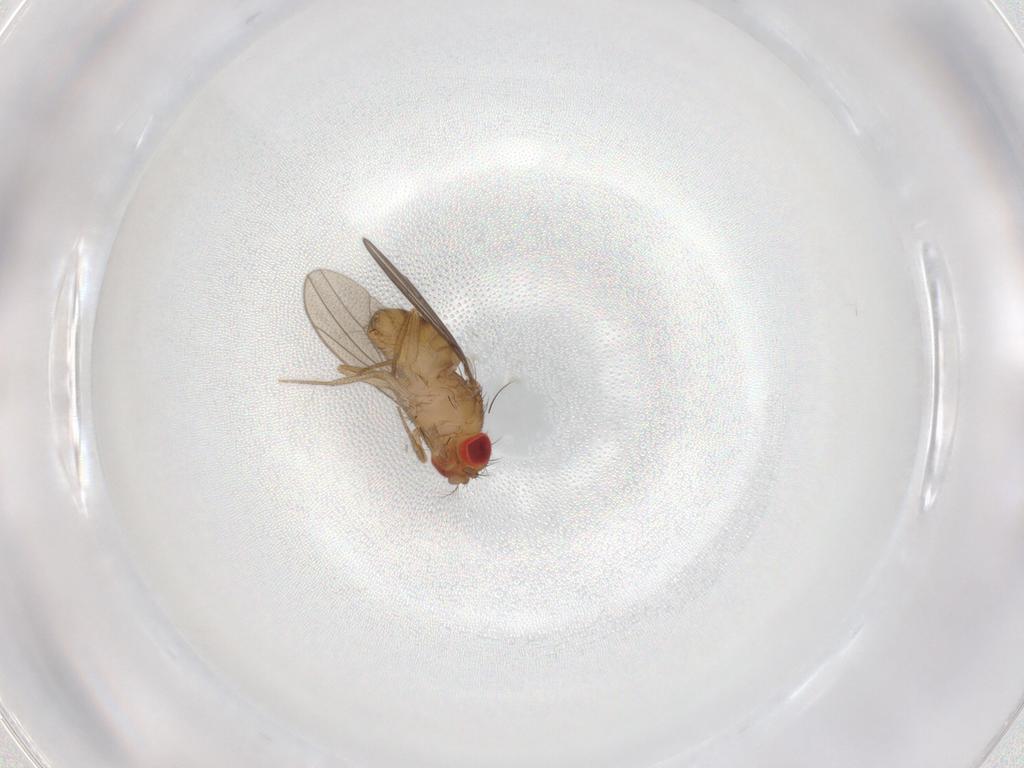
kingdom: Animalia
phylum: Arthropoda
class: Insecta
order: Diptera
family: Drosophilidae
